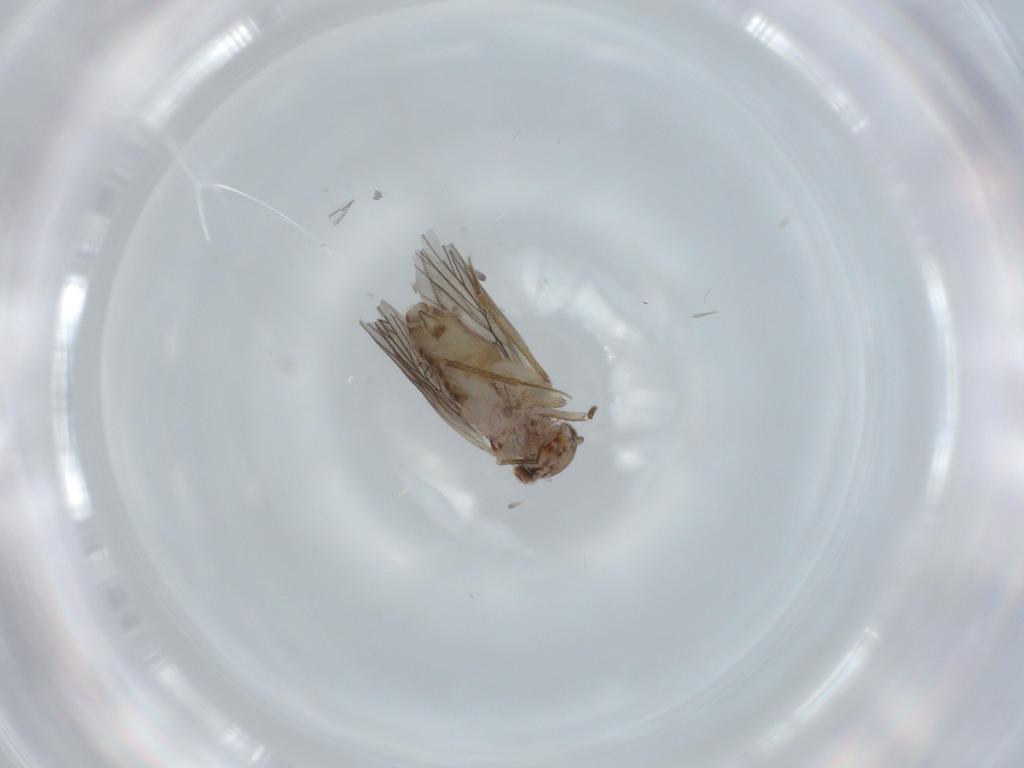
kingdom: Animalia
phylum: Arthropoda
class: Insecta
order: Psocodea
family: Lepidopsocidae
